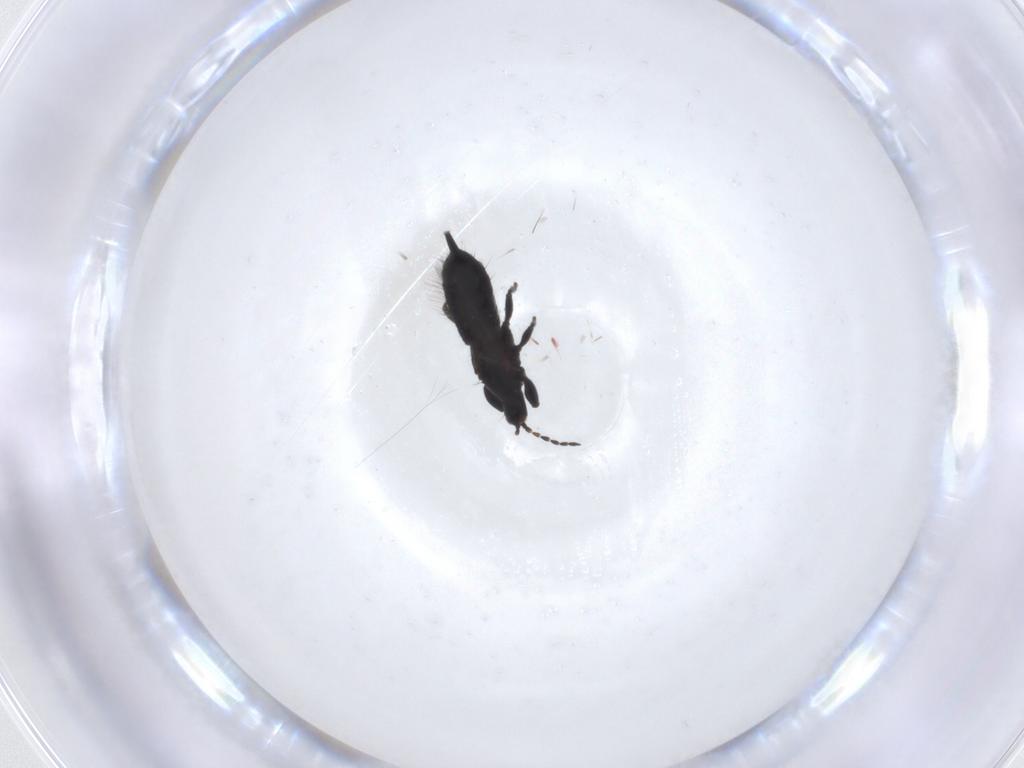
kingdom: Animalia
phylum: Arthropoda
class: Insecta
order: Thysanoptera
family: Phlaeothripidae
